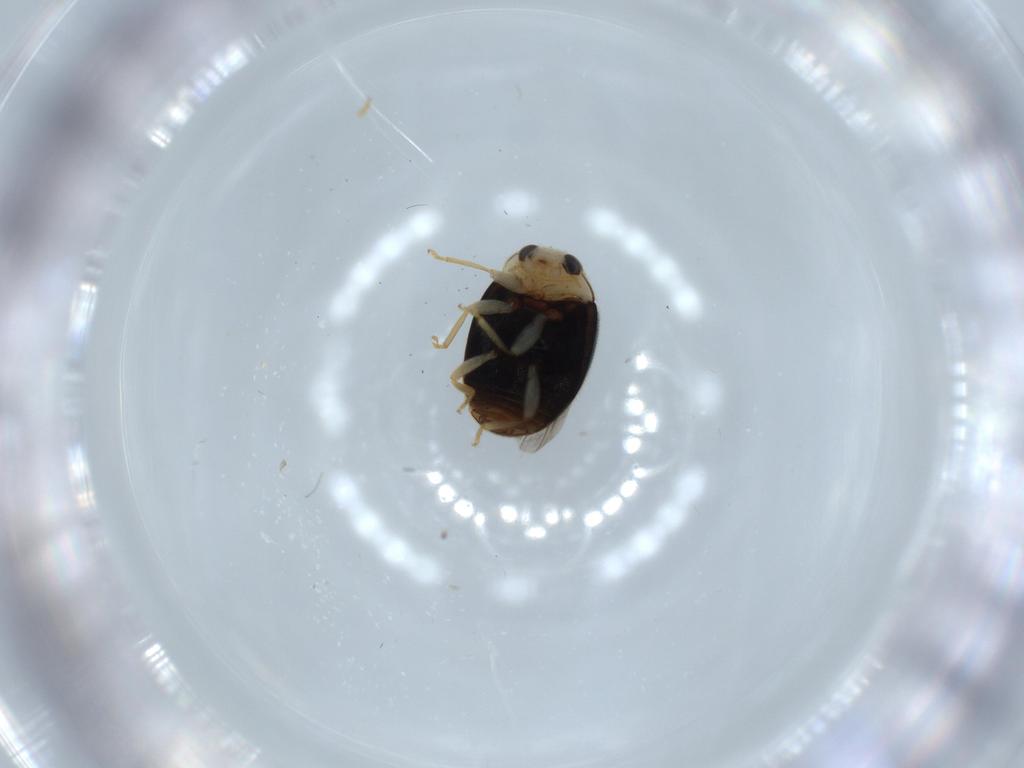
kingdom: Animalia
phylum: Arthropoda
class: Insecta
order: Coleoptera
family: Coccinellidae
